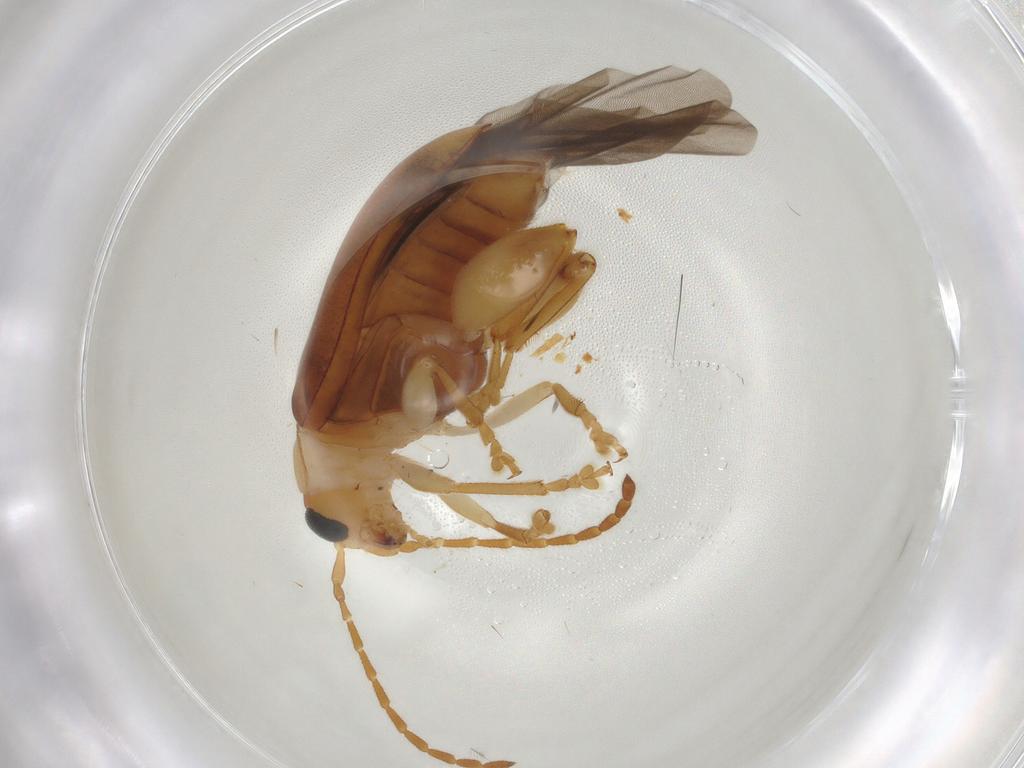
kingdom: Animalia
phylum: Arthropoda
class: Insecta
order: Coleoptera
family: Chrysomelidae
